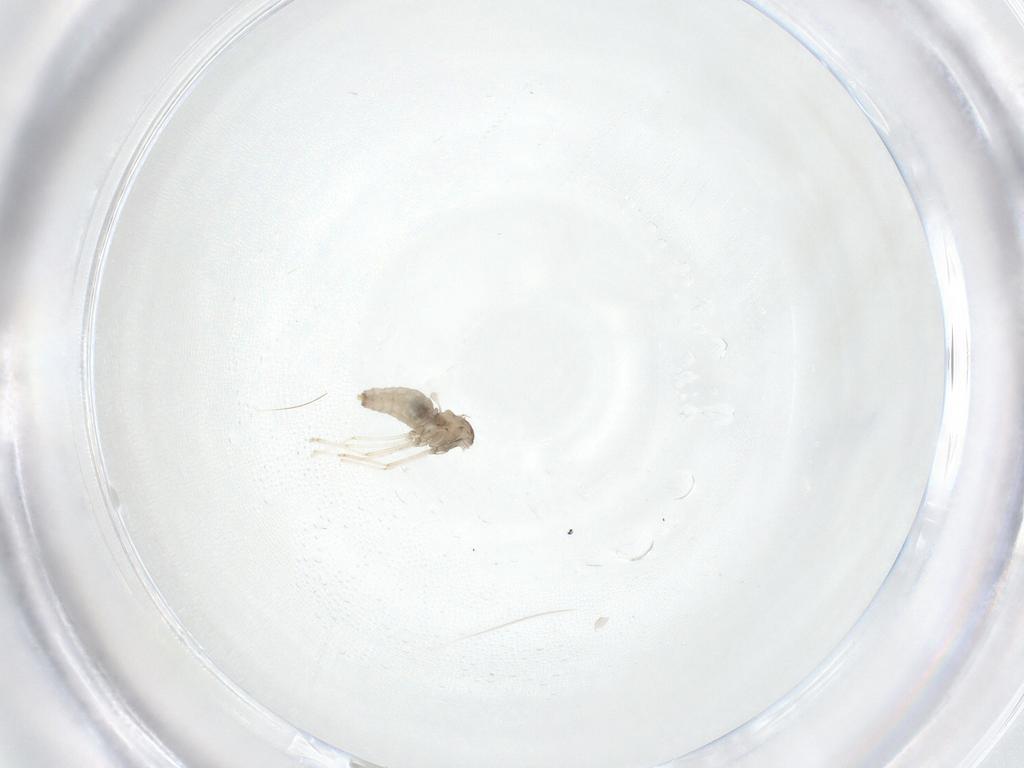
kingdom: Animalia
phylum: Arthropoda
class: Insecta
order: Diptera
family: Cecidomyiidae
